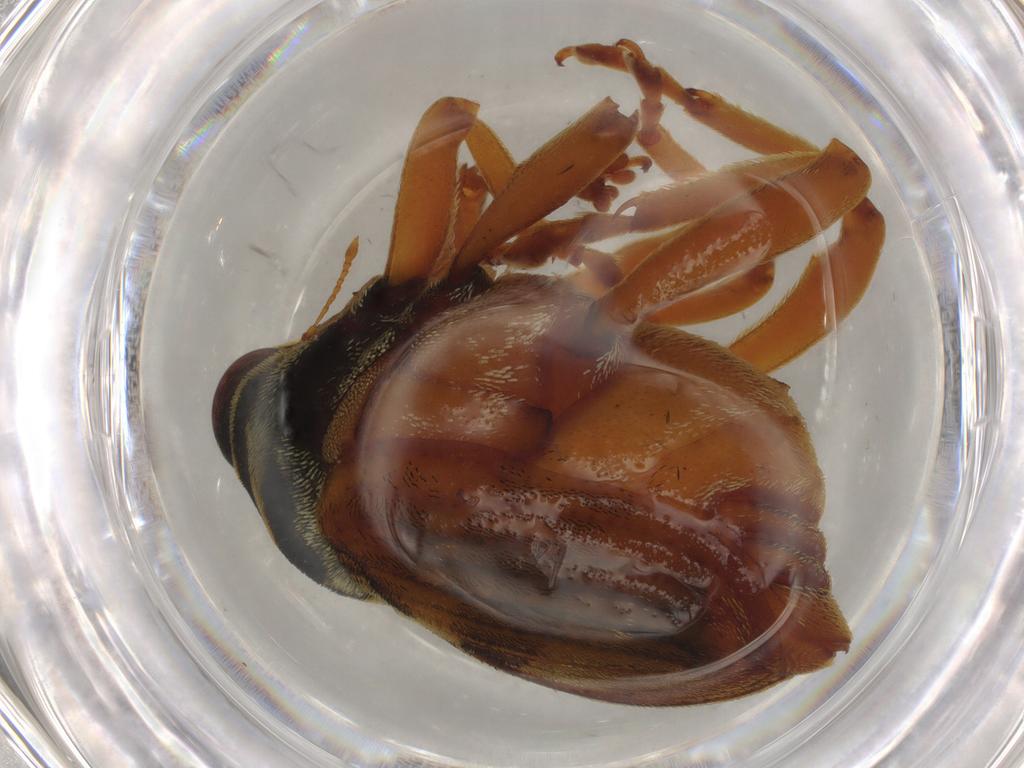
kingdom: Animalia
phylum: Arthropoda
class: Insecta
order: Coleoptera
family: Curculionidae
